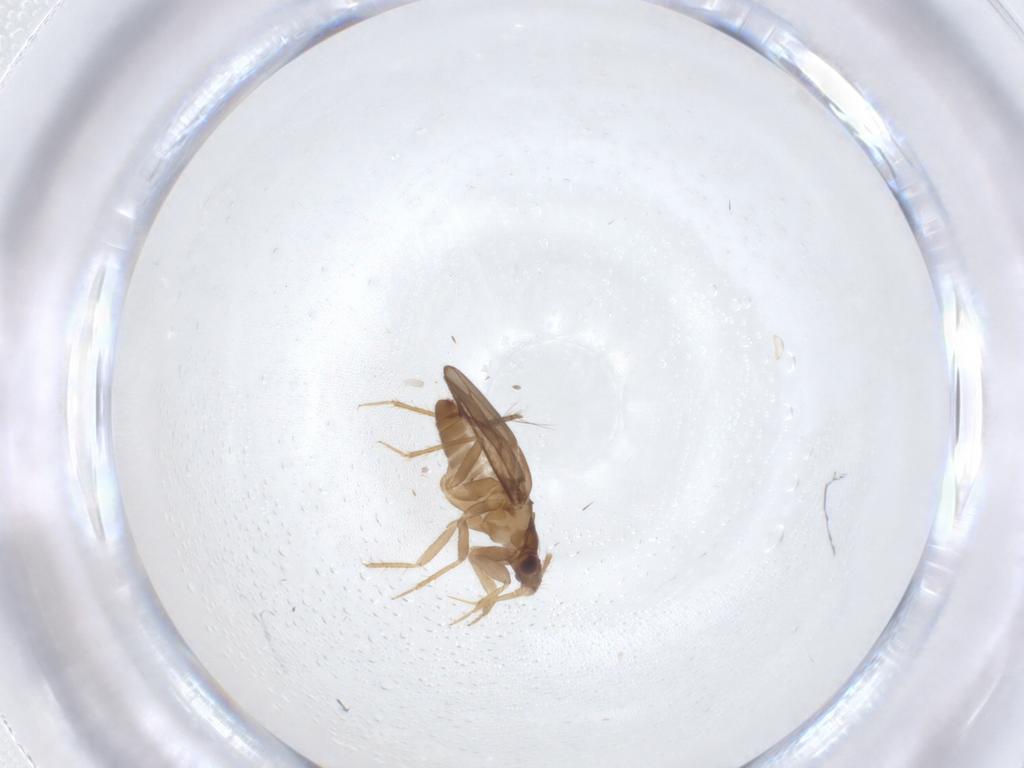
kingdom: Animalia
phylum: Arthropoda
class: Insecta
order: Hemiptera
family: Ceratocombidae
